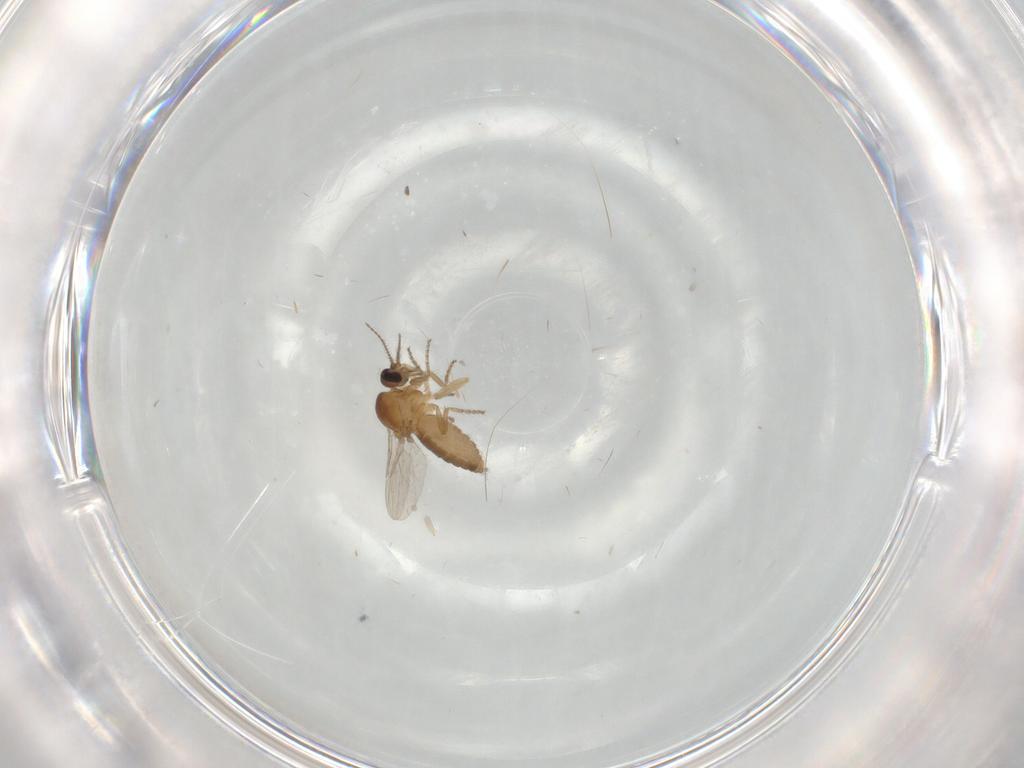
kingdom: Animalia
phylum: Arthropoda
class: Insecta
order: Diptera
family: Ceratopogonidae
